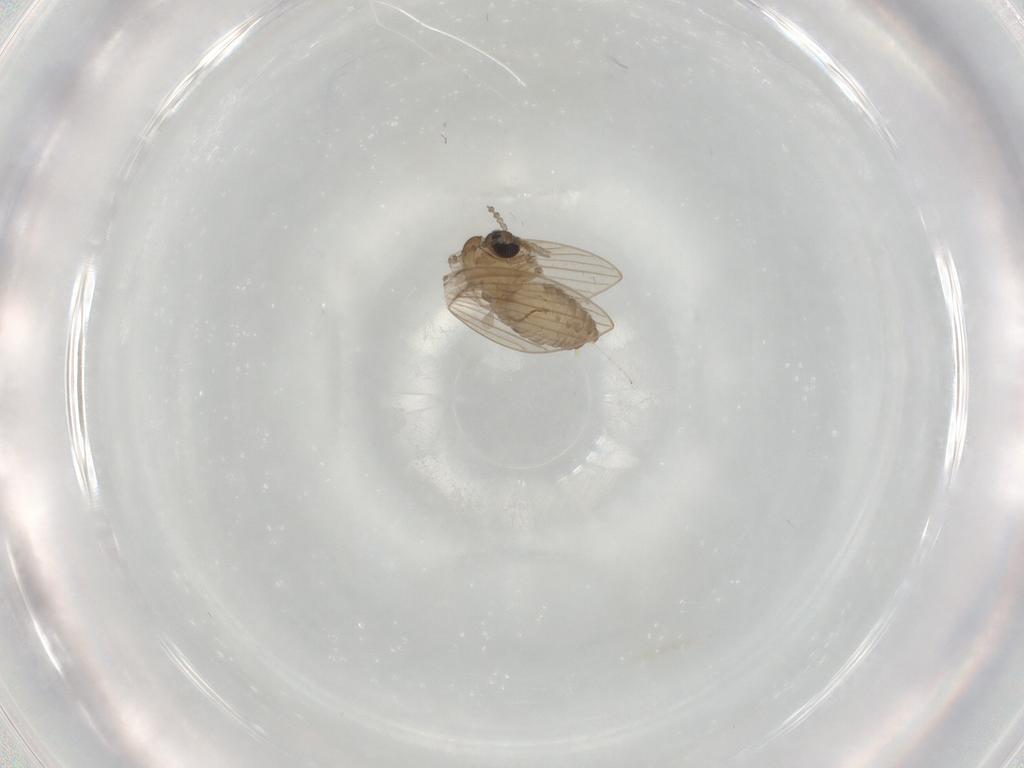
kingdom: Animalia
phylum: Arthropoda
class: Insecta
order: Diptera
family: Psychodidae
